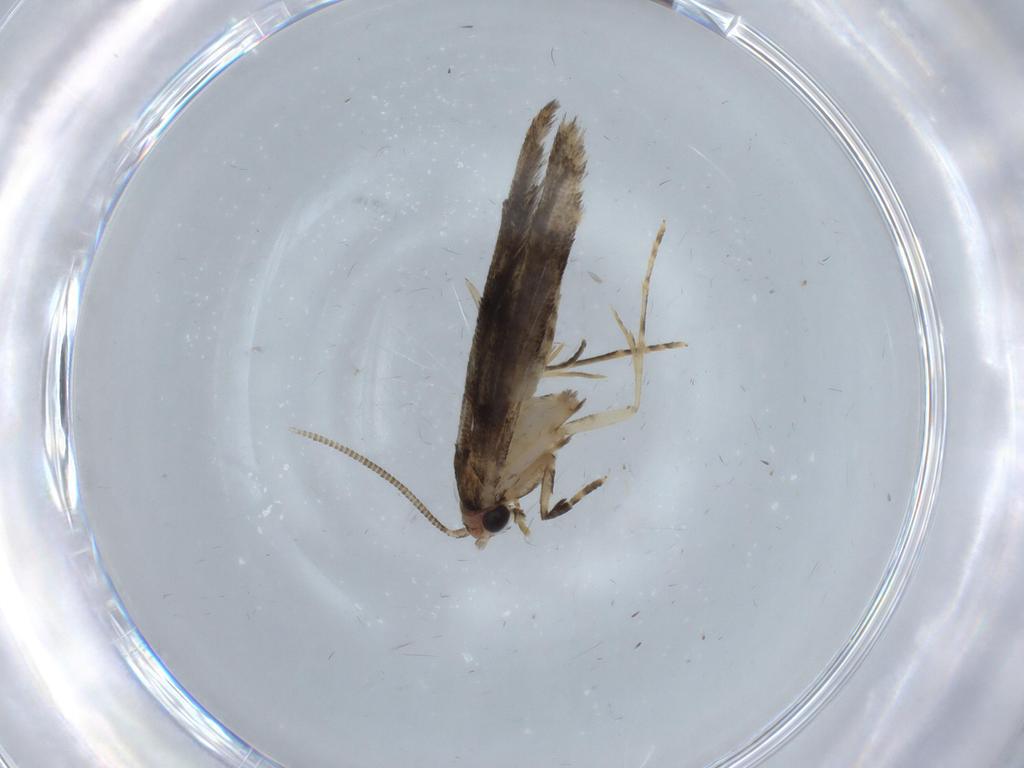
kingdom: Animalia
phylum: Arthropoda
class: Insecta
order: Lepidoptera
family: Tineidae
